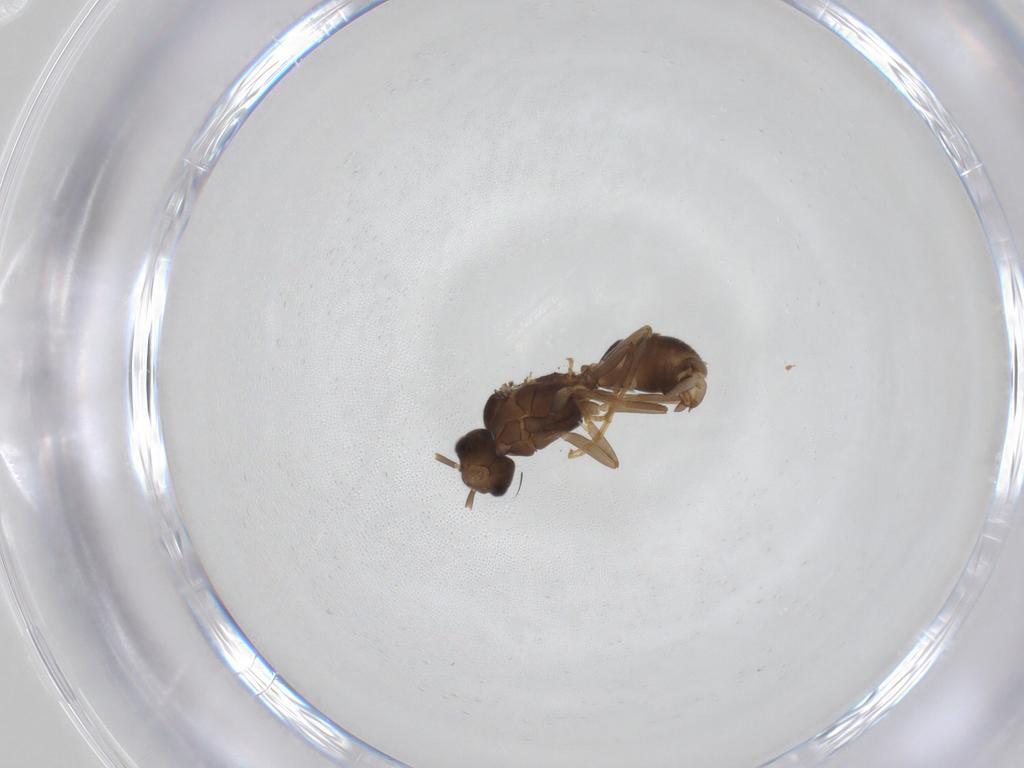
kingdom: Animalia
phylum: Arthropoda
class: Insecta
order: Hymenoptera
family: Formicidae
